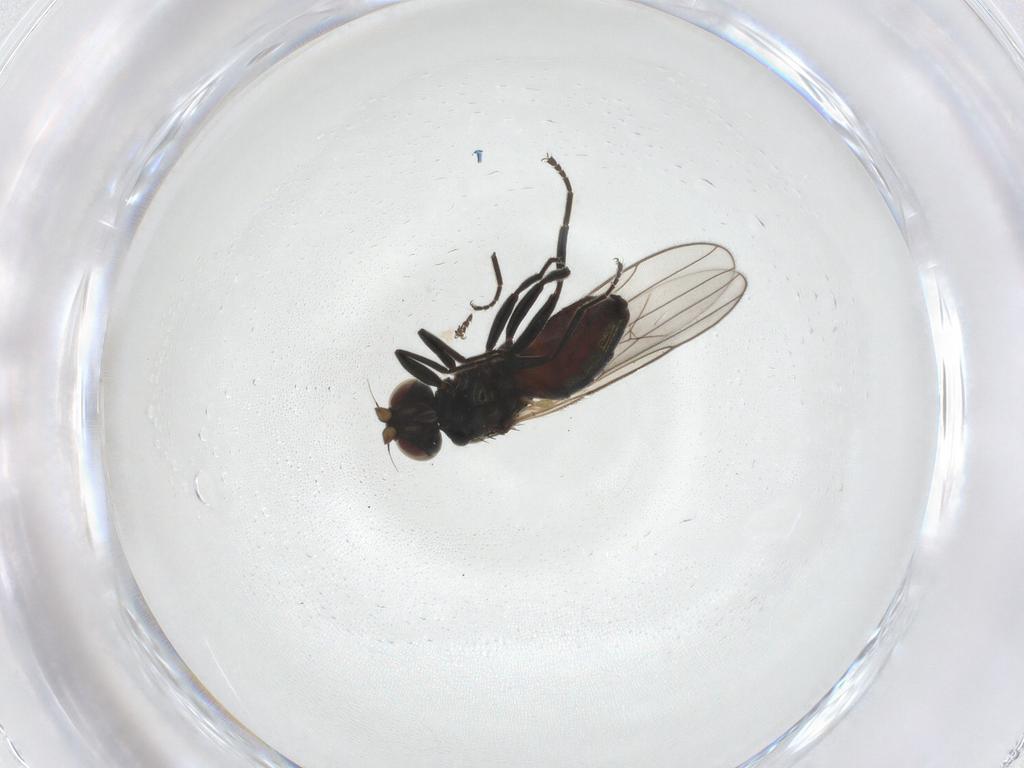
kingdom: Animalia
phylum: Arthropoda
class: Insecta
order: Diptera
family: Chloropidae
